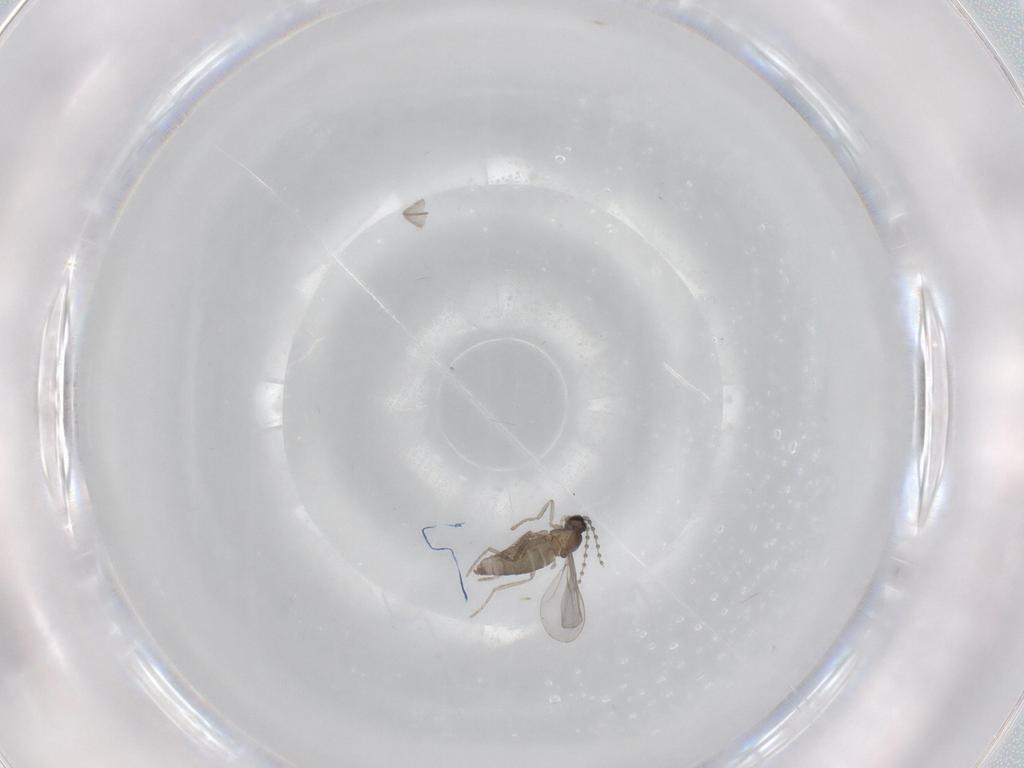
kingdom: Animalia
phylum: Arthropoda
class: Insecta
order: Diptera
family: Cecidomyiidae
